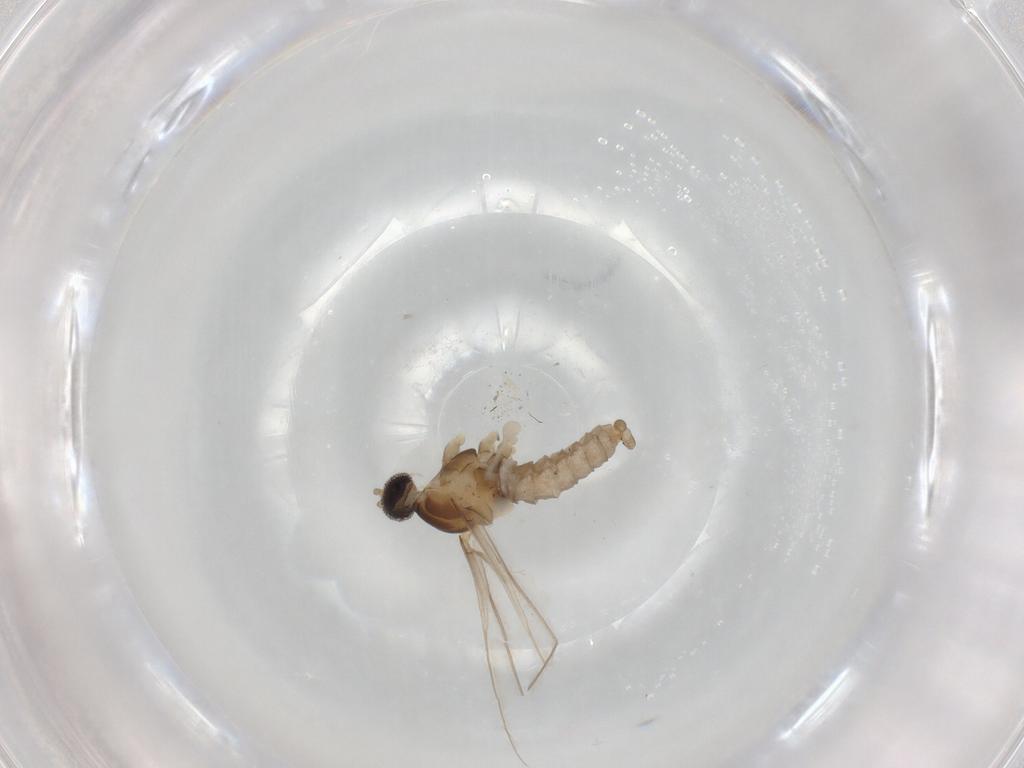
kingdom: Animalia
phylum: Arthropoda
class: Insecta
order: Diptera
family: Cecidomyiidae
